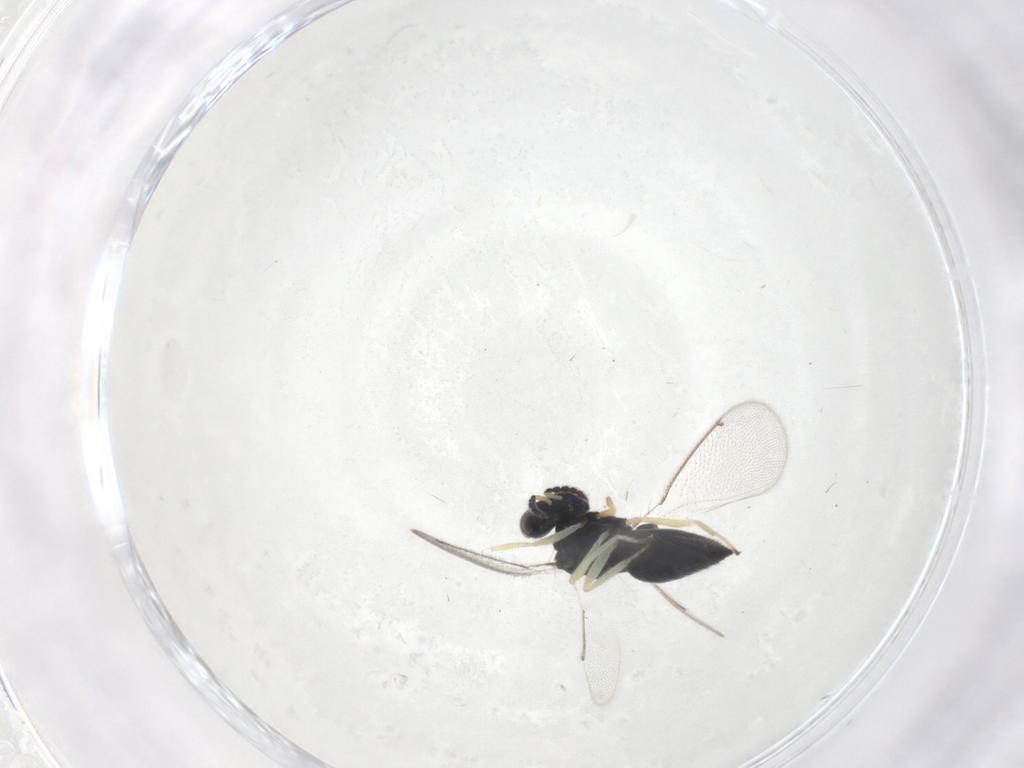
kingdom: Animalia
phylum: Arthropoda
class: Insecta
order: Hymenoptera
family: Eulophidae
